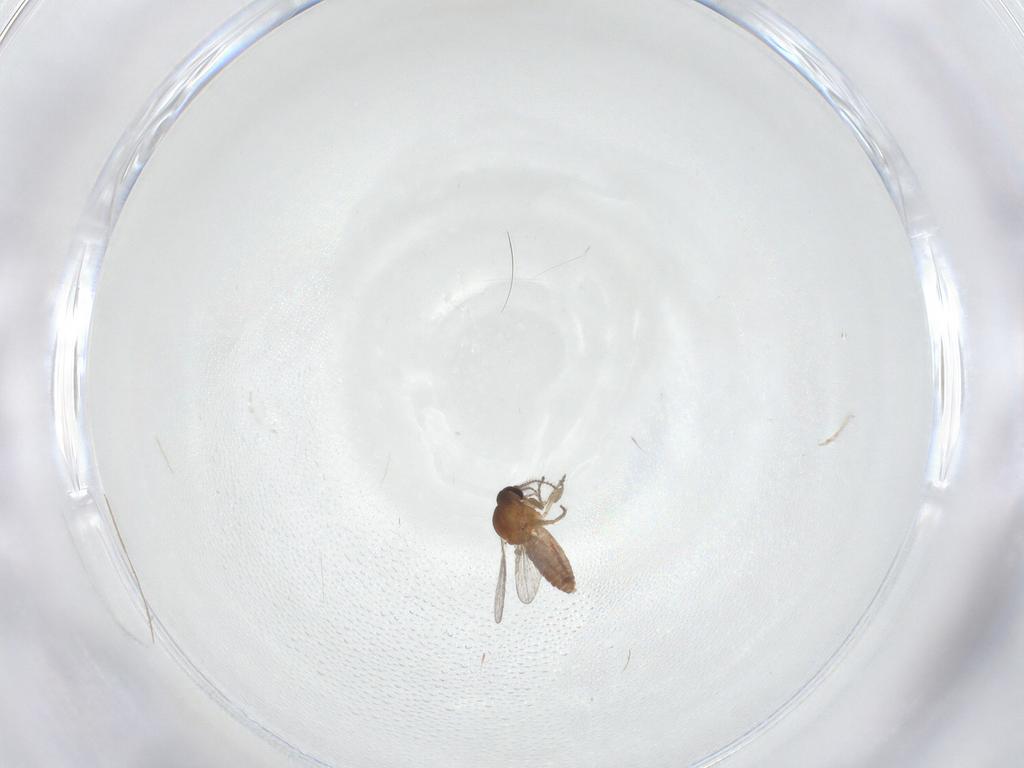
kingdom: Animalia
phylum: Arthropoda
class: Insecta
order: Diptera
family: Ceratopogonidae
